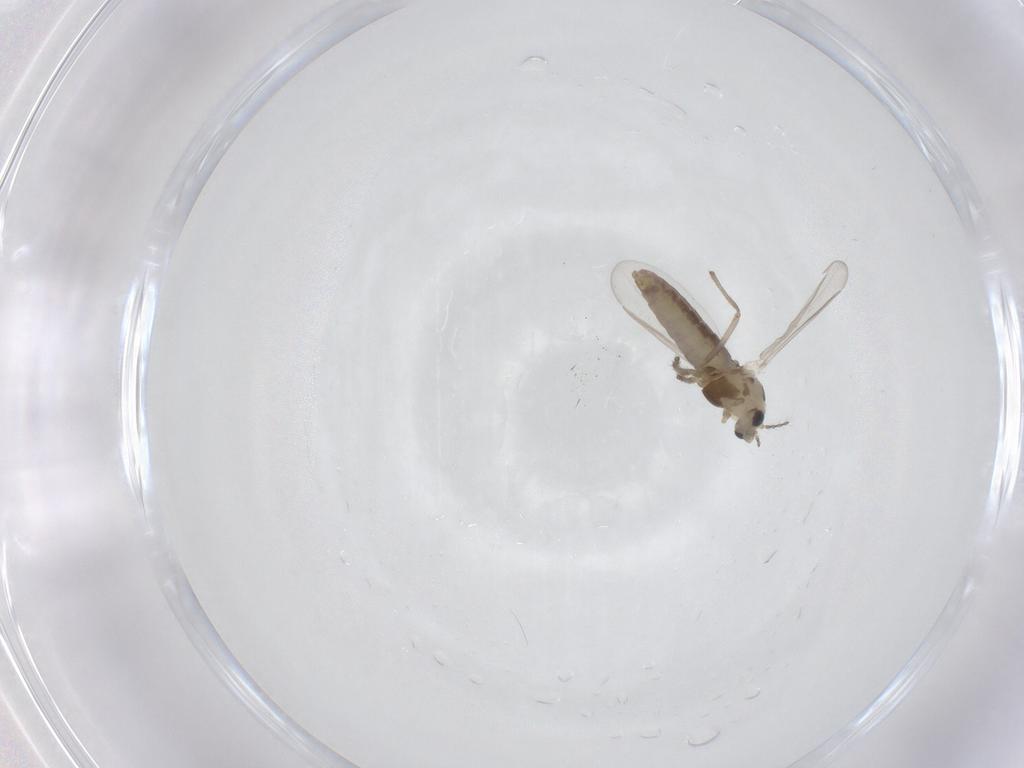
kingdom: Animalia
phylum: Arthropoda
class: Insecta
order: Diptera
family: Chironomidae
